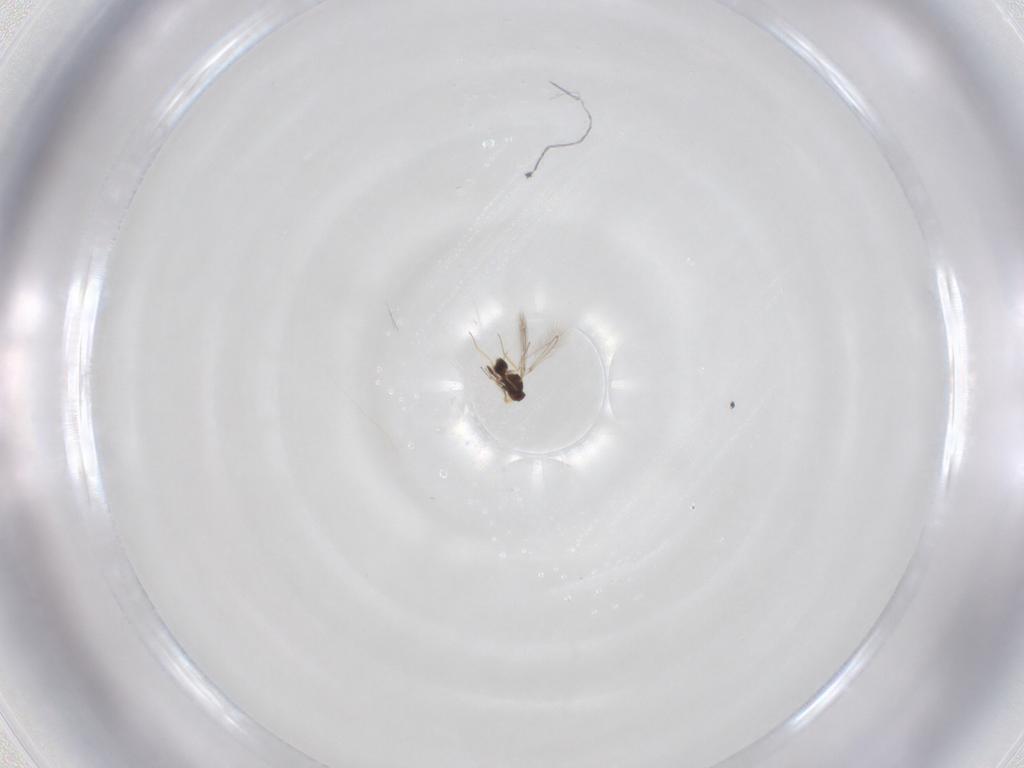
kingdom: Animalia
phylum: Arthropoda
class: Insecta
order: Hymenoptera
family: Mymaridae
